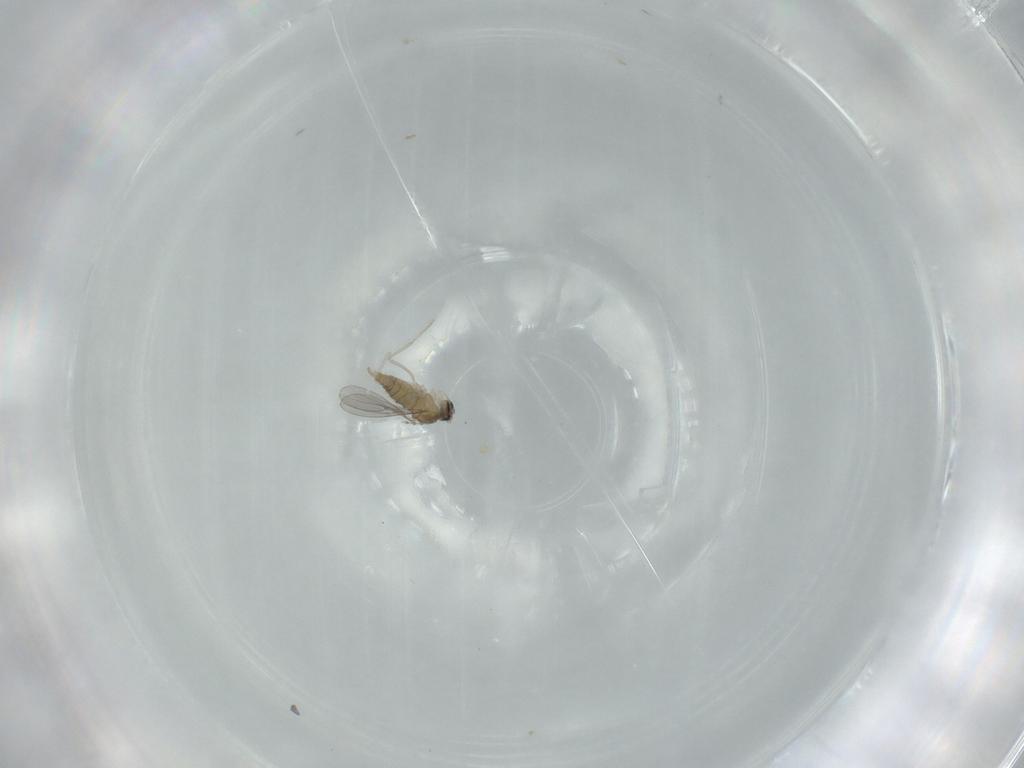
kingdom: Animalia
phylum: Arthropoda
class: Insecta
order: Diptera
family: Cecidomyiidae
